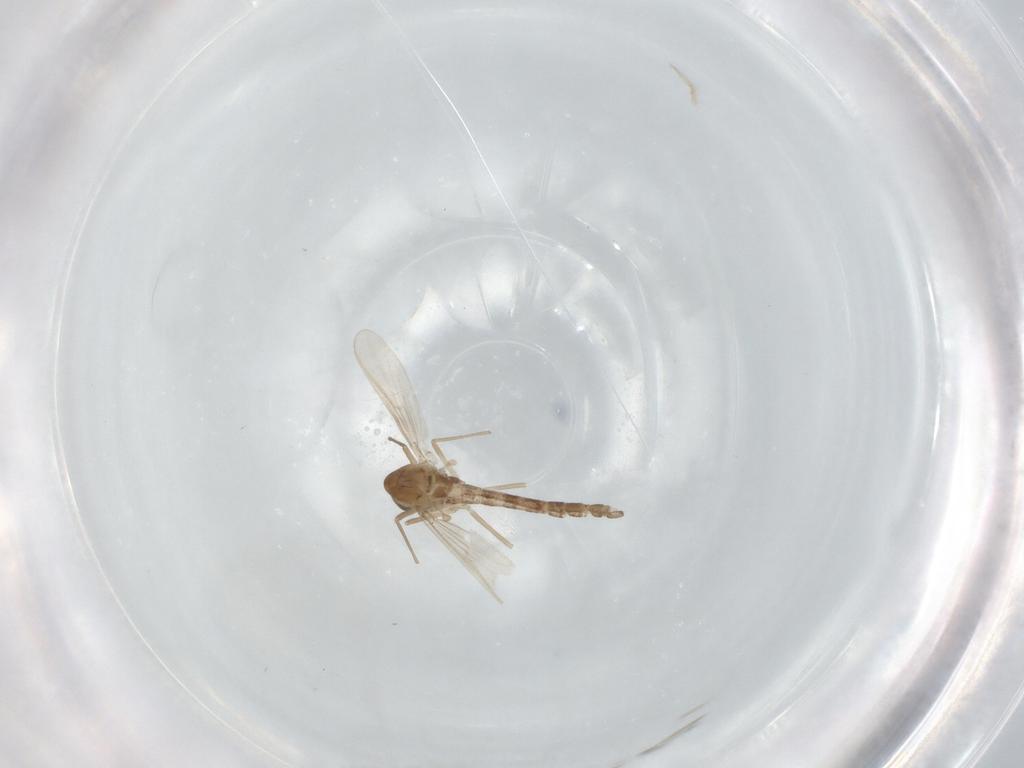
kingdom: Animalia
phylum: Arthropoda
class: Insecta
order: Diptera
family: Chironomidae
